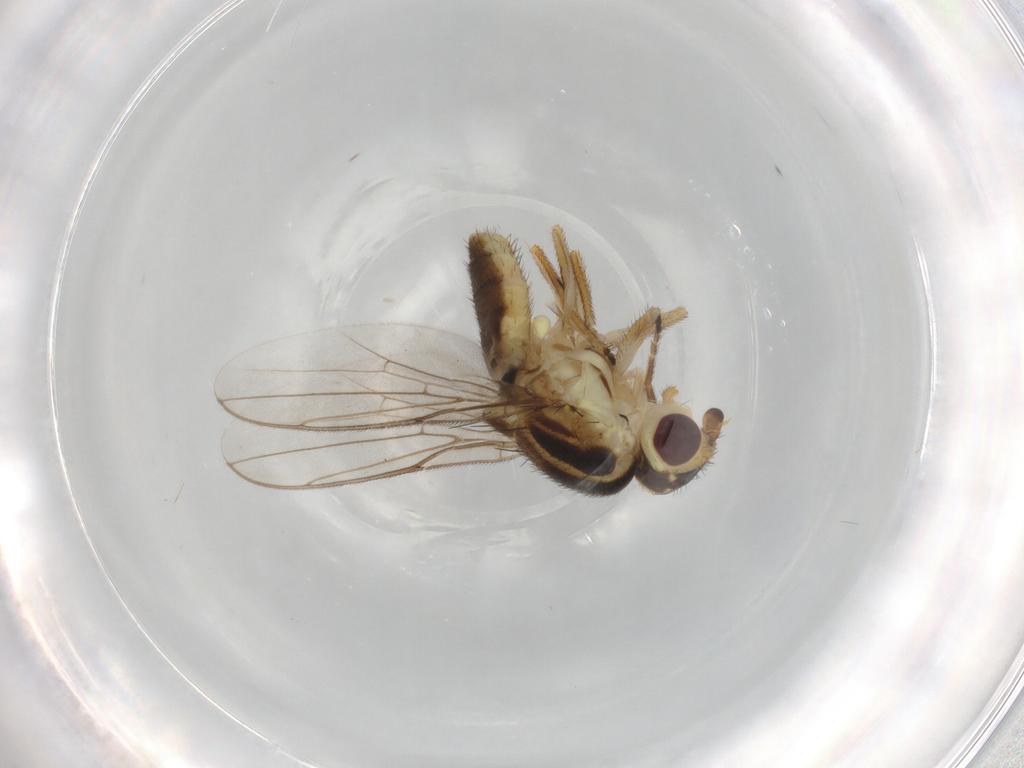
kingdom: Animalia
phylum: Arthropoda
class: Insecta
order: Diptera
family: Chloropidae
